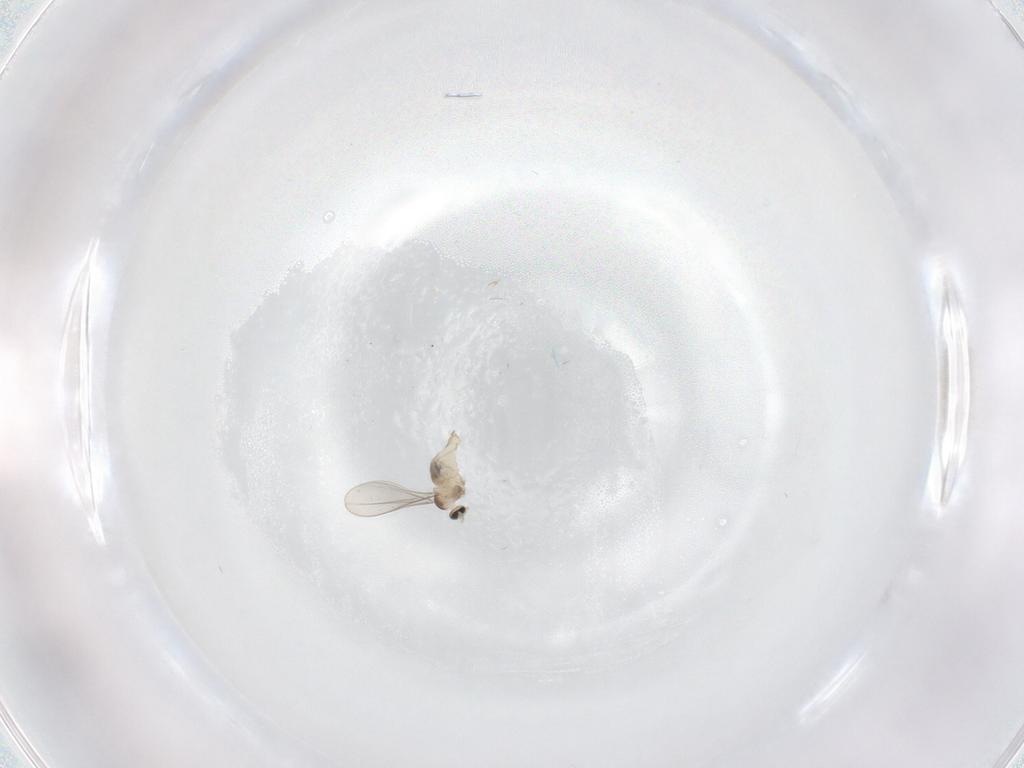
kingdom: Animalia
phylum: Arthropoda
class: Insecta
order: Diptera
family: Cecidomyiidae
